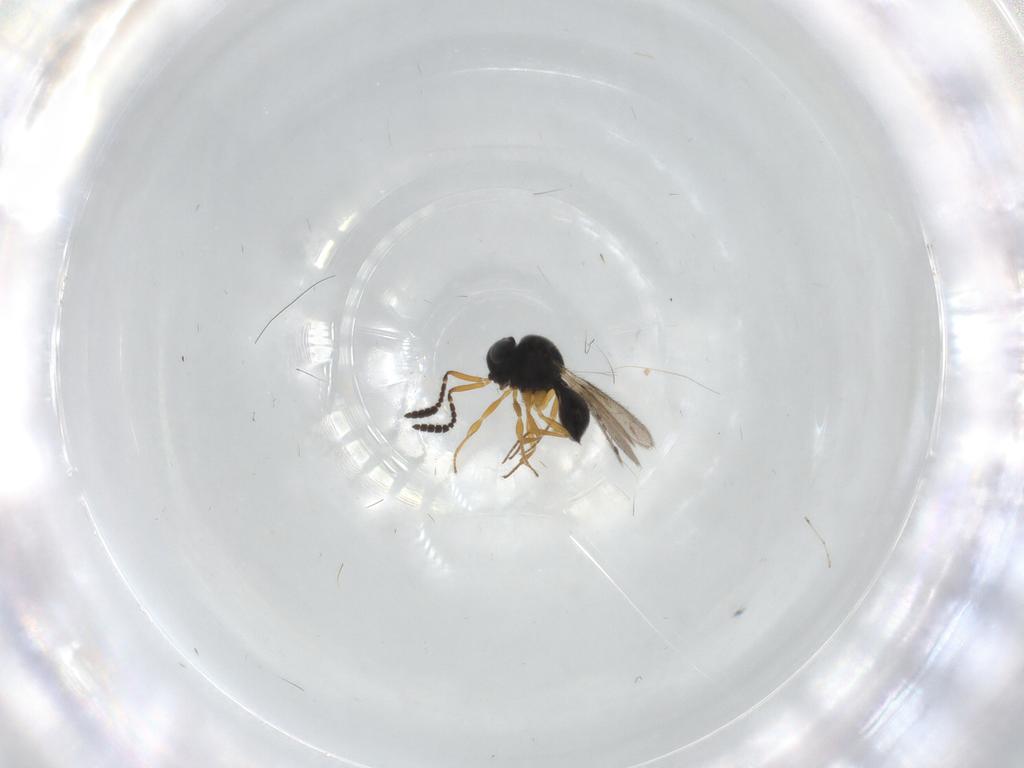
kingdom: Animalia
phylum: Arthropoda
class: Insecta
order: Hymenoptera
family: Scelionidae
